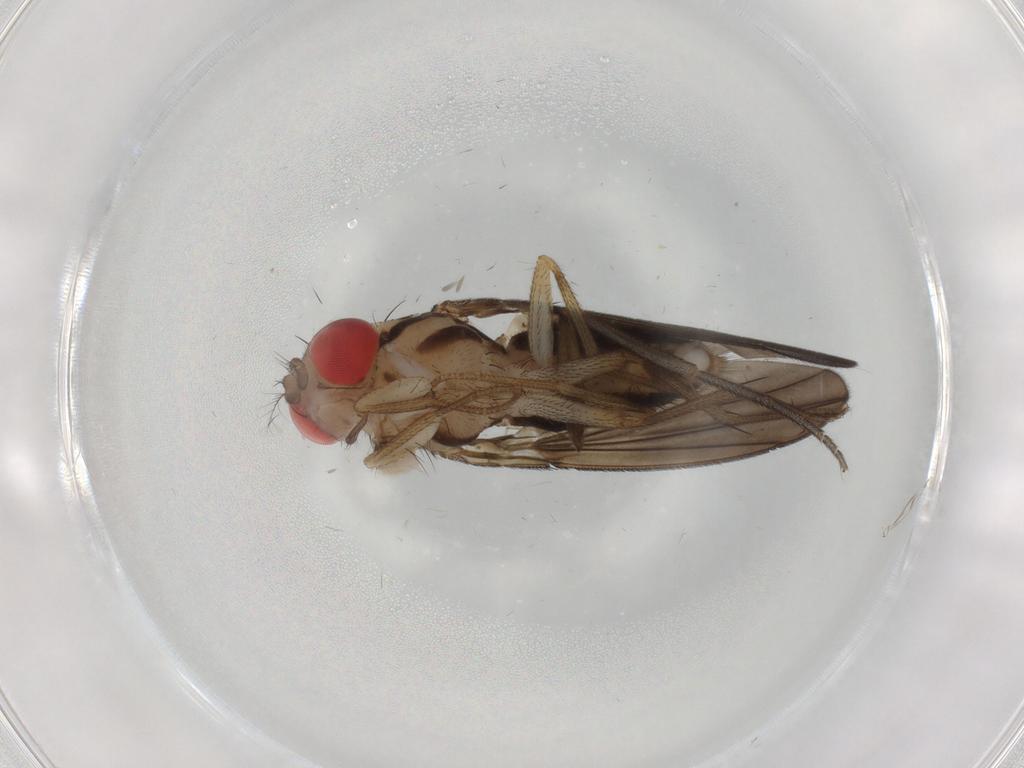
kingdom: Animalia
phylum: Arthropoda
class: Insecta
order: Diptera
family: Drosophilidae
